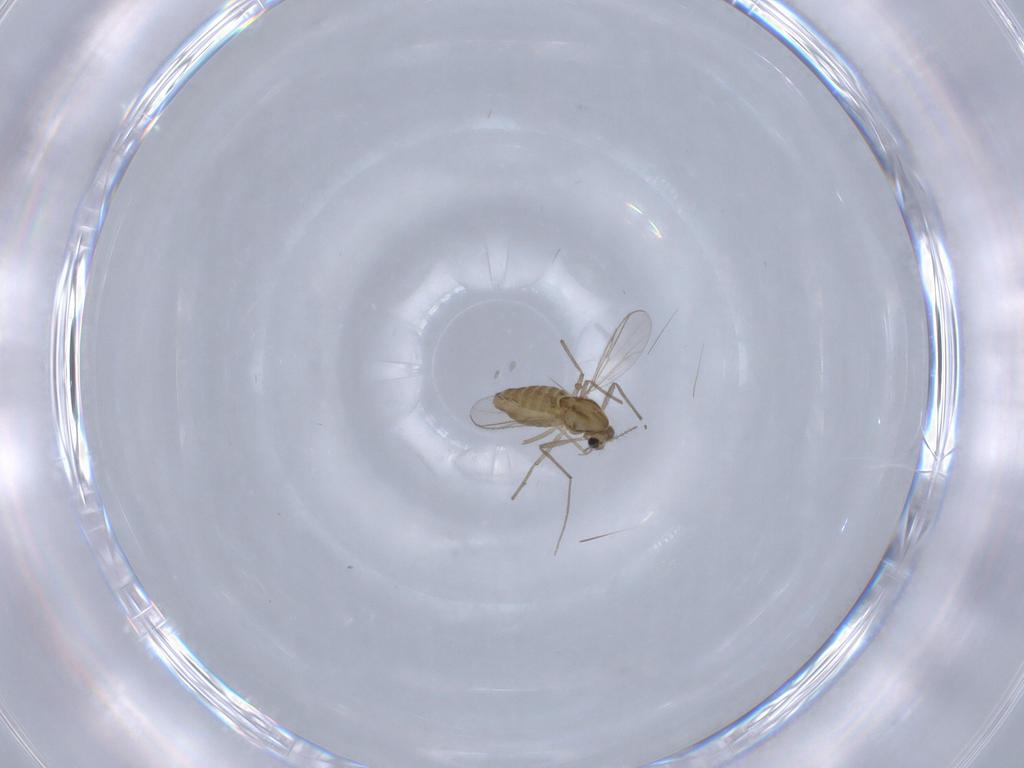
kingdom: Animalia
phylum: Arthropoda
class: Insecta
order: Diptera
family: Chironomidae
